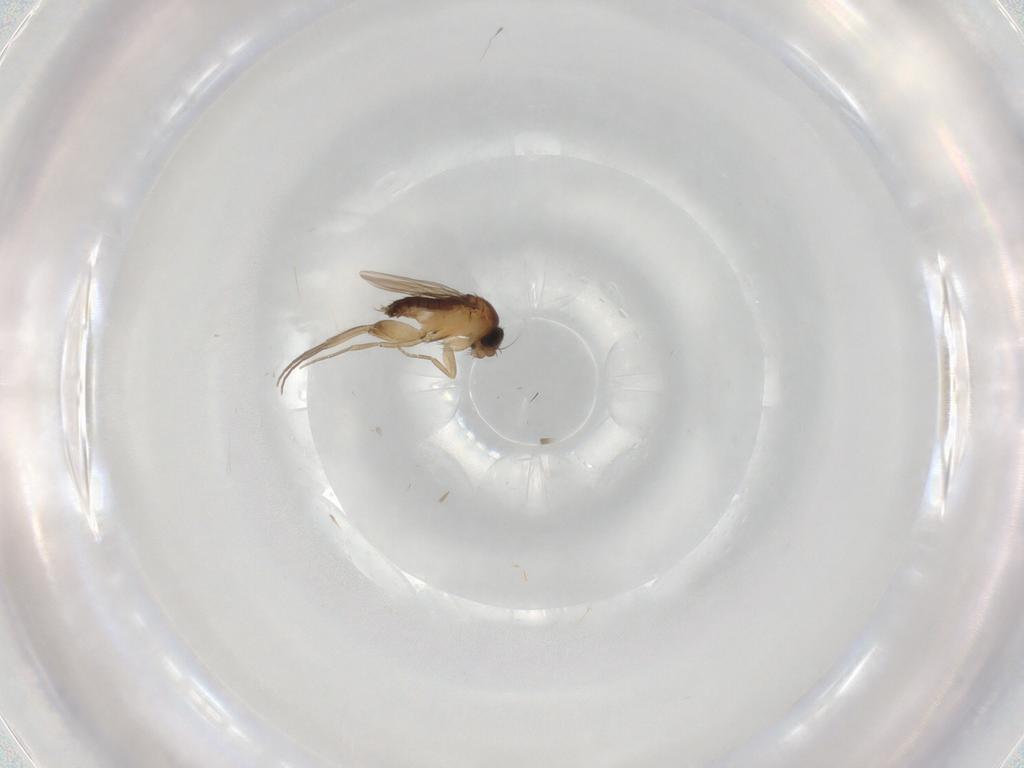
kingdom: Animalia
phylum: Arthropoda
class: Insecta
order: Diptera
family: Phoridae
